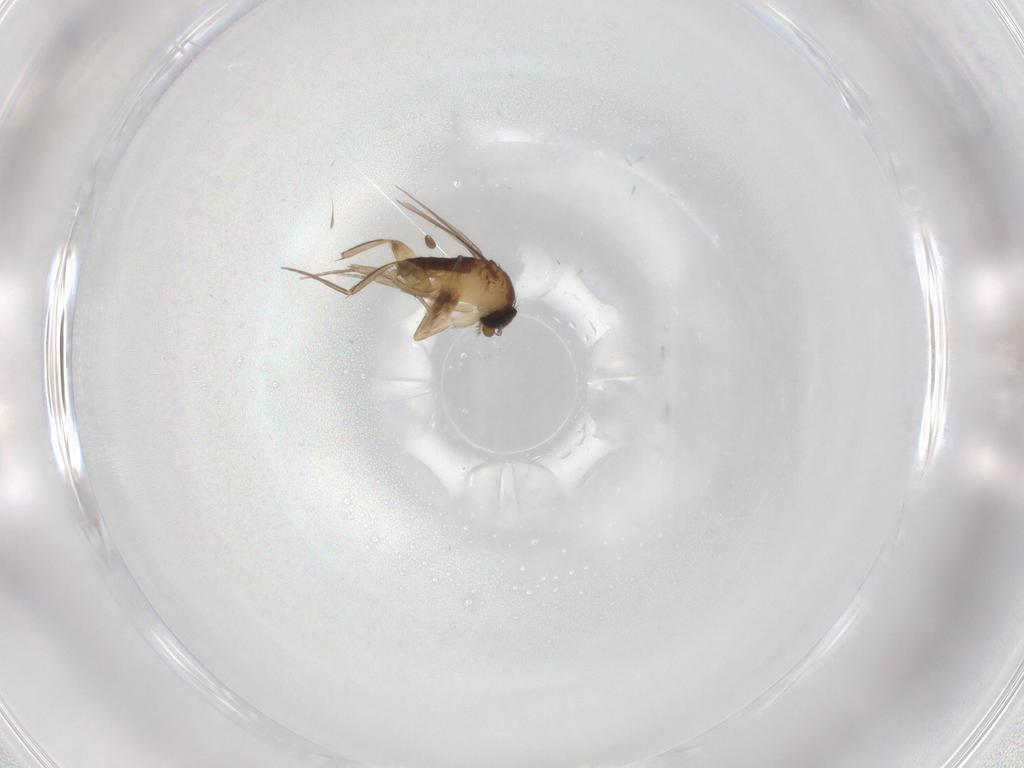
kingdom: Animalia
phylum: Arthropoda
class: Insecta
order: Diptera
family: Phoridae
